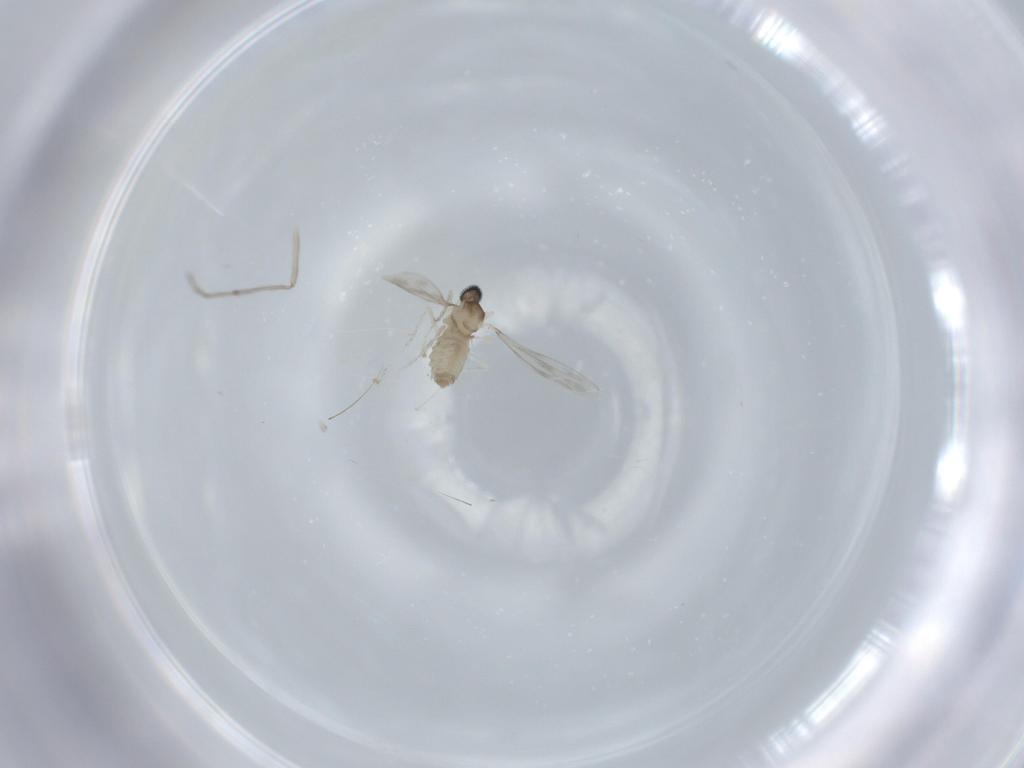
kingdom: Animalia
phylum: Arthropoda
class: Insecta
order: Diptera
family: Cecidomyiidae
